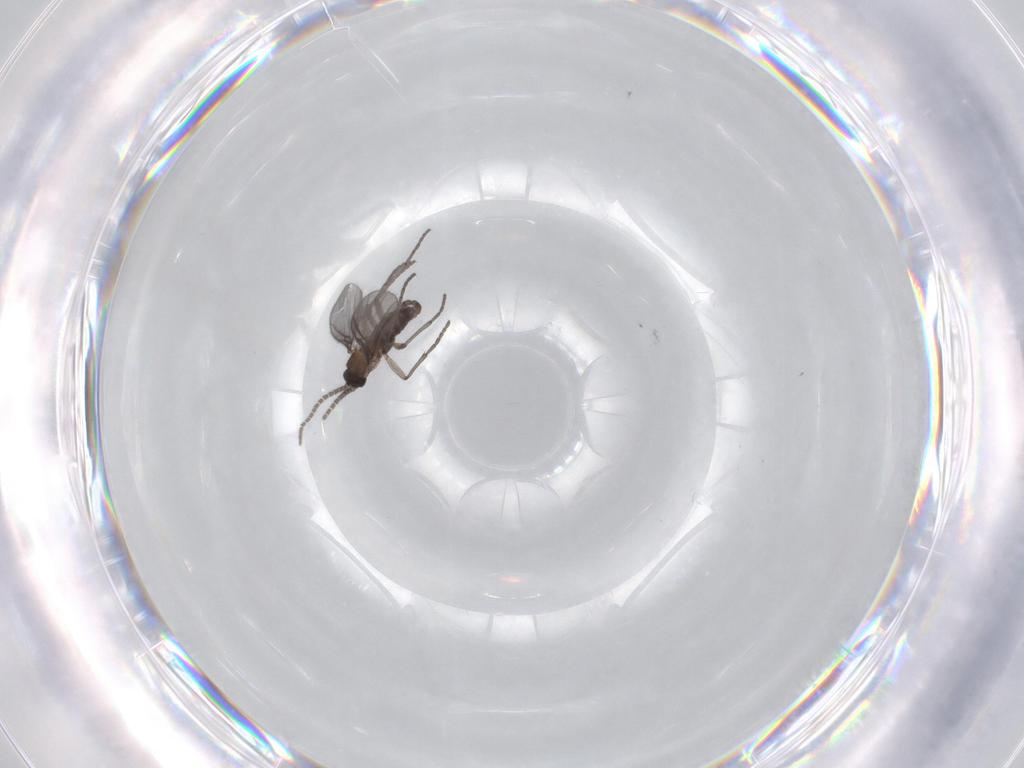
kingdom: Animalia
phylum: Arthropoda
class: Insecta
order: Diptera
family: Sciaridae
